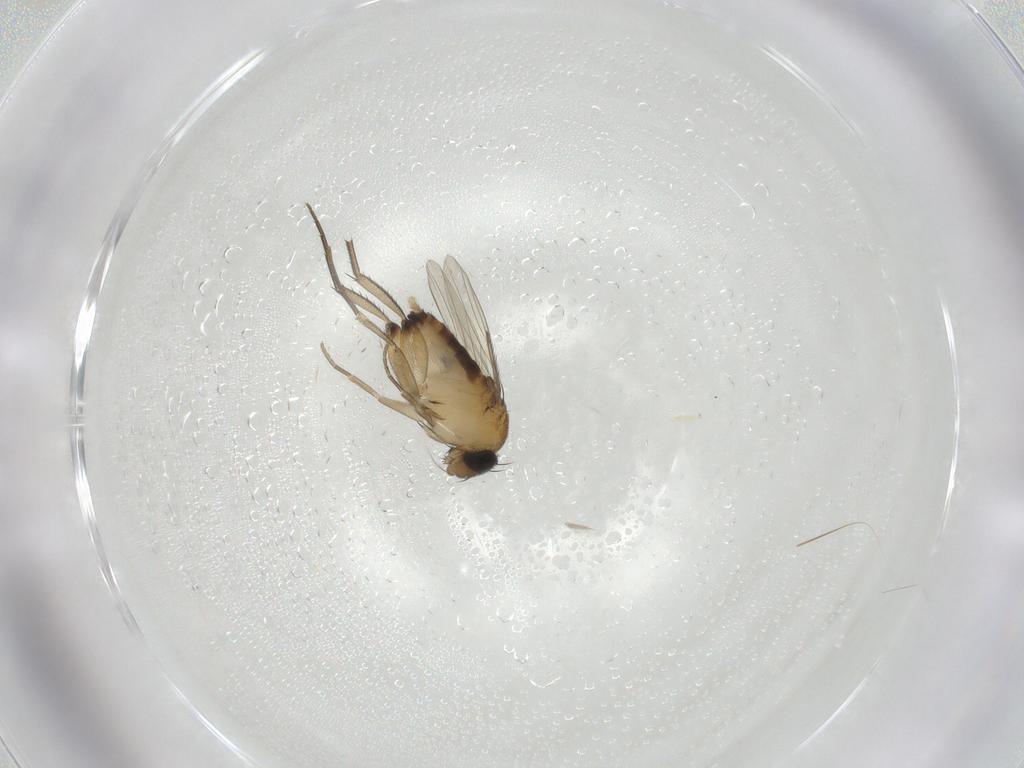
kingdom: Animalia
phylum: Arthropoda
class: Insecta
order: Diptera
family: Phoridae
